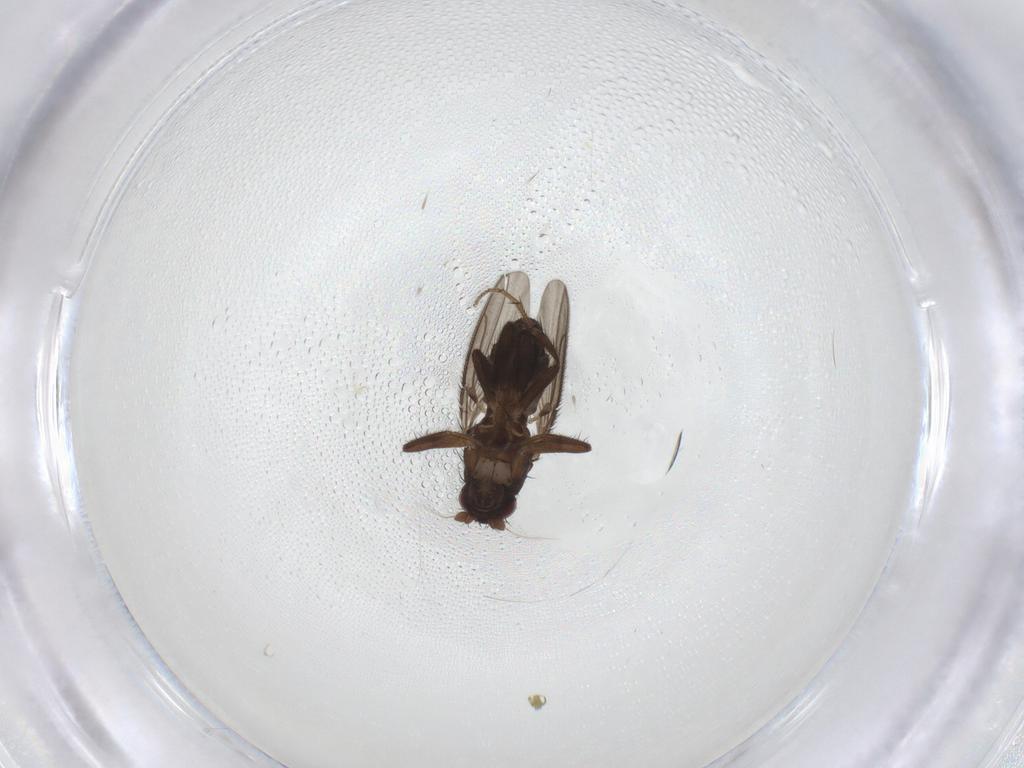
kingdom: Animalia
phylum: Arthropoda
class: Insecta
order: Diptera
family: Sphaeroceridae
